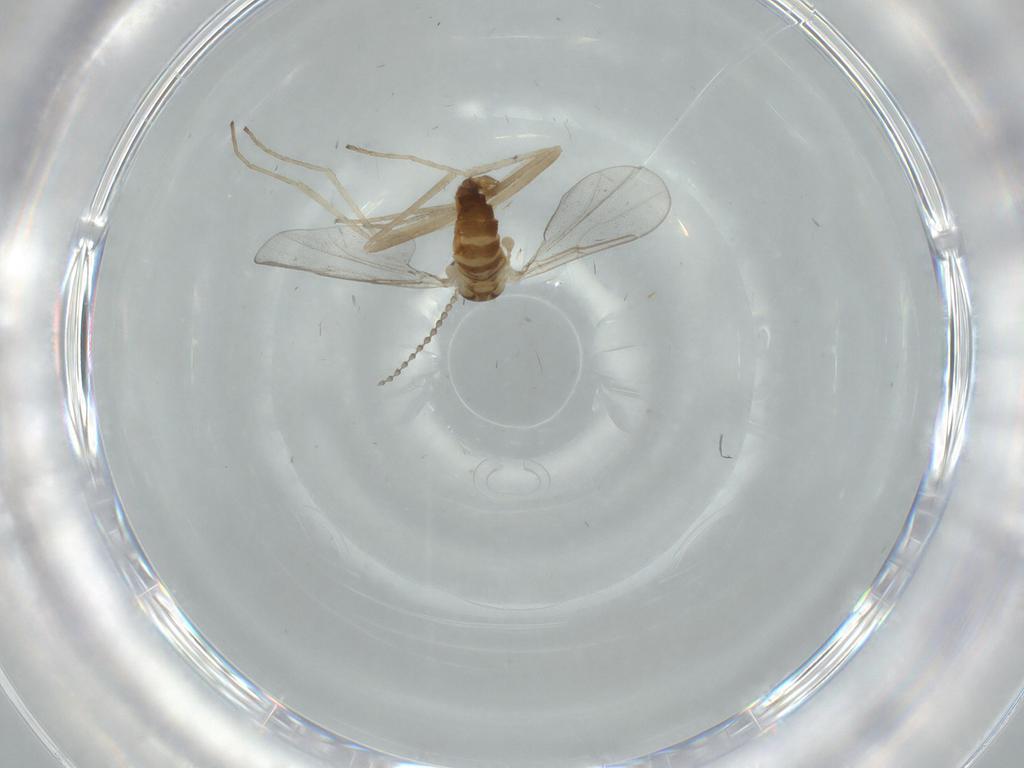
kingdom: Animalia
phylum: Arthropoda
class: Insecta
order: Diptera
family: Cecidomyiidae
